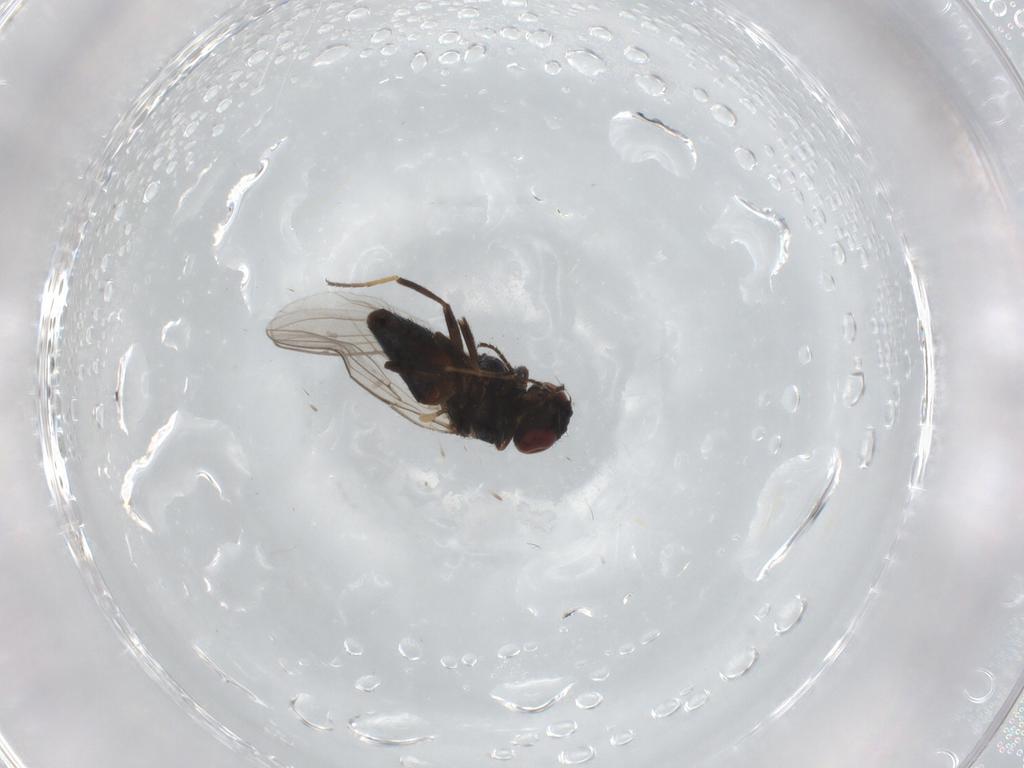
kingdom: Animalia
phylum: Arthropoda
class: Insecta
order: Diptera
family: Chloropidae
